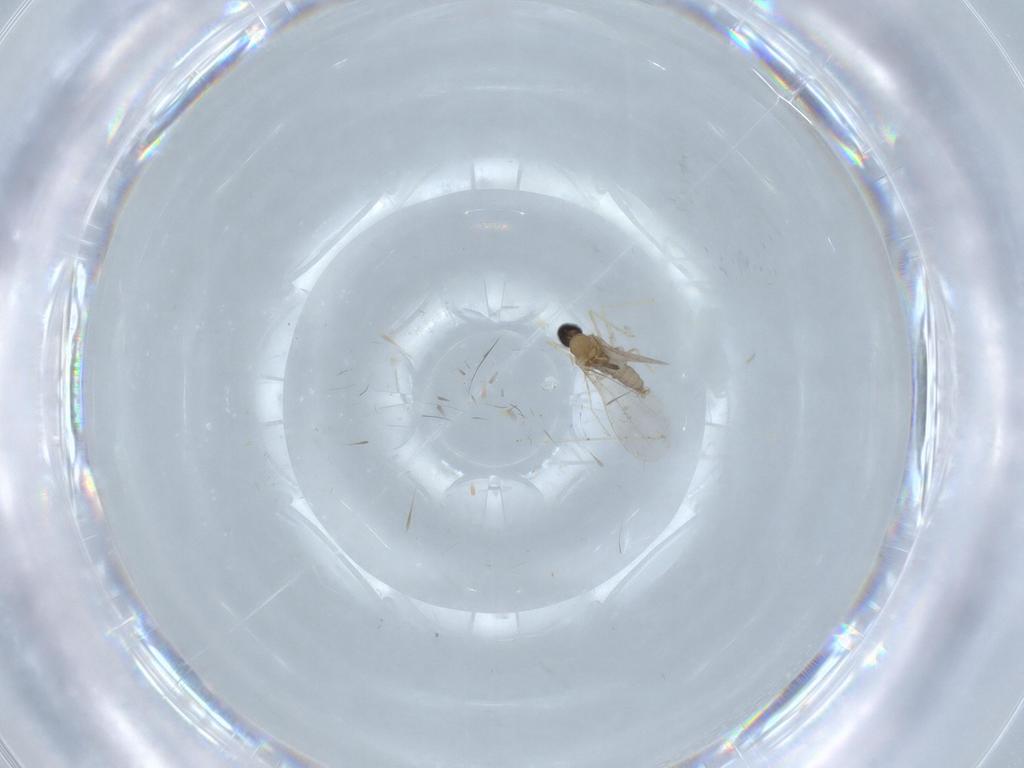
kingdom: Animalia
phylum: Arthropoda
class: Insecta
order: Diptera
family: Cecidomyiidae
